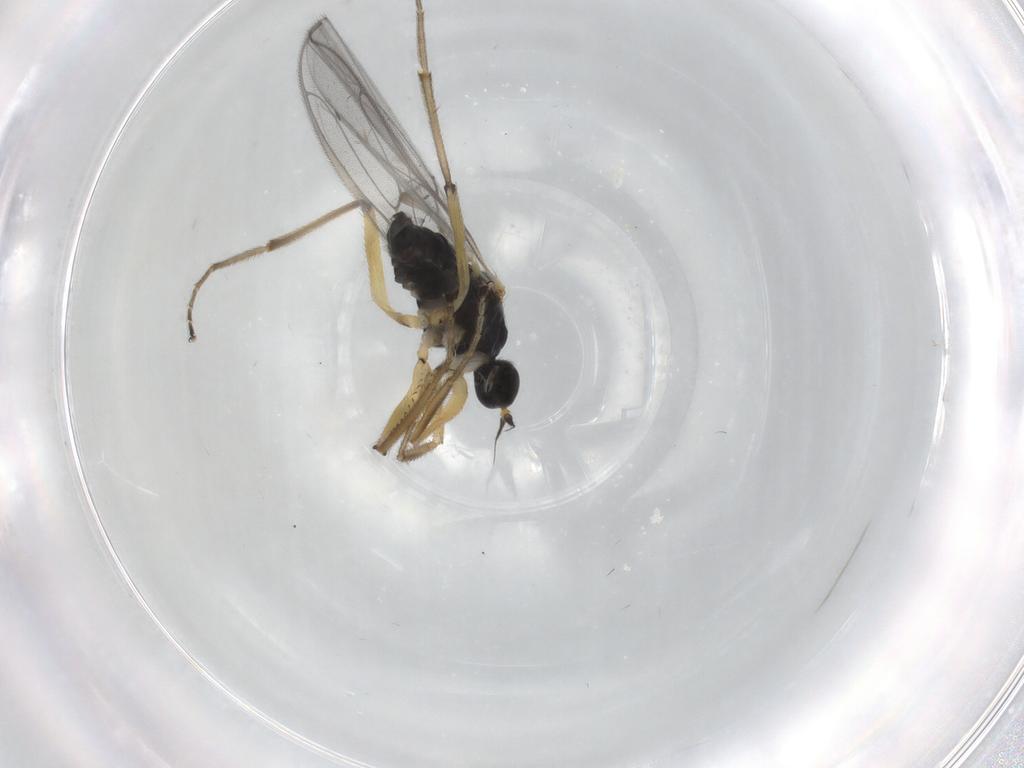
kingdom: Animalia
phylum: Arthropoda
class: Insecta
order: Diptera
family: Hybotidae
